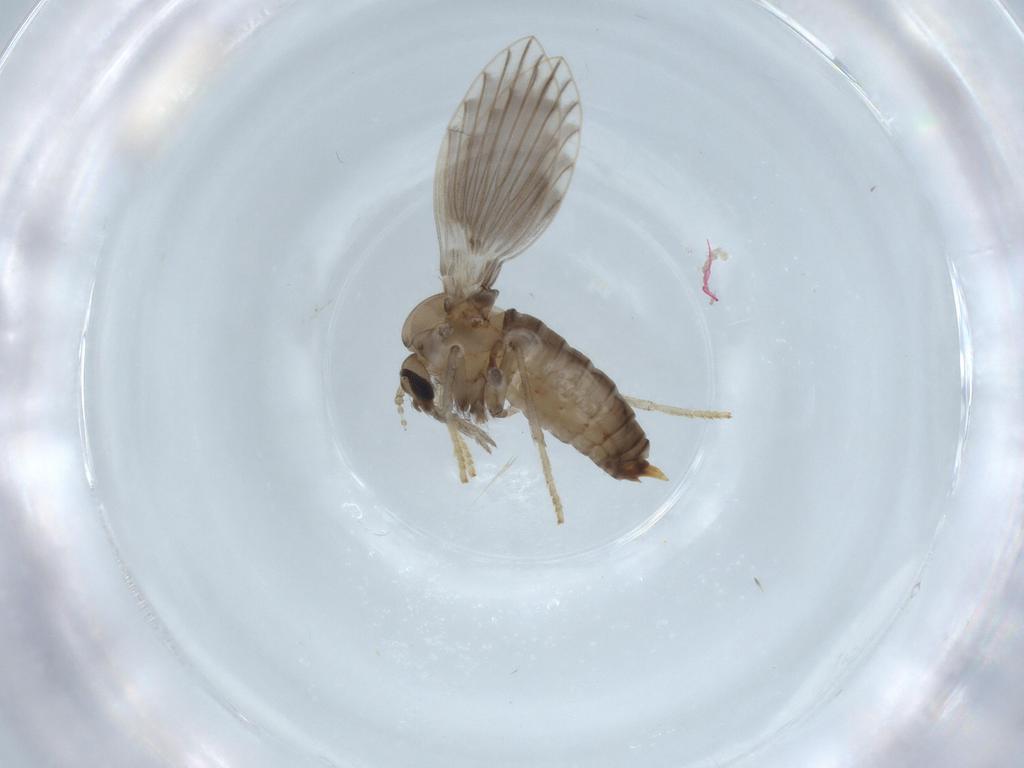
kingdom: Animalia
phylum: Arthropoda
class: Insecta
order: Diptera
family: Psychodidae
